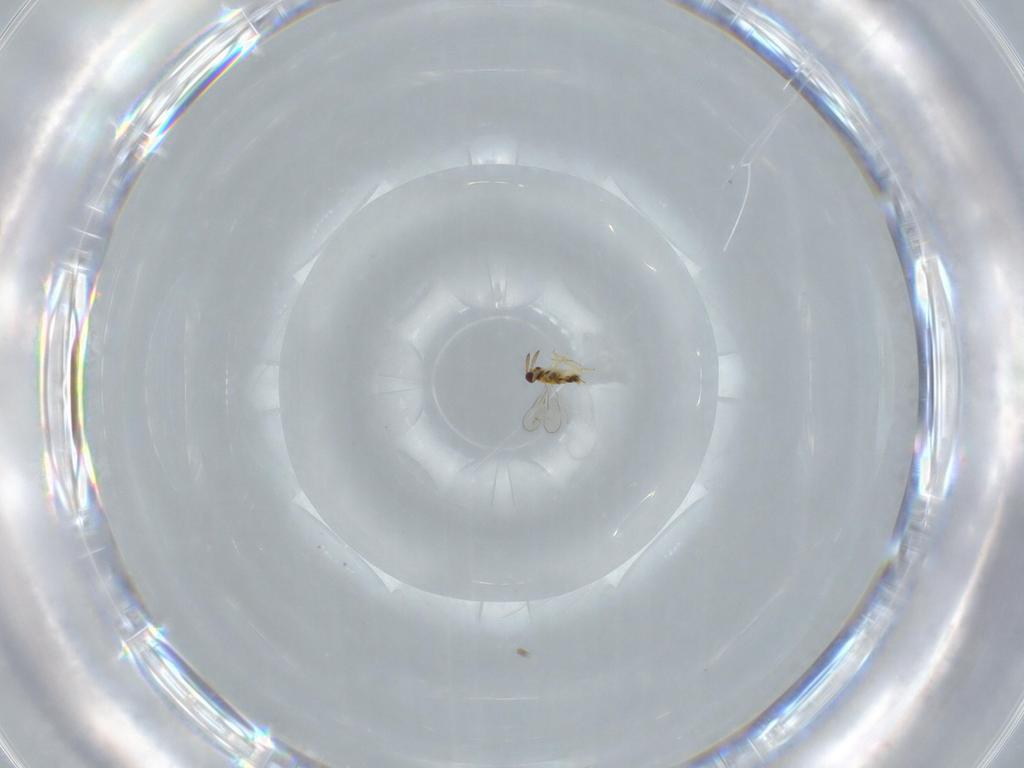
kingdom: Animalia
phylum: Arthropoda
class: Insecta
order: Hymenoptera
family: Aphelinidae
